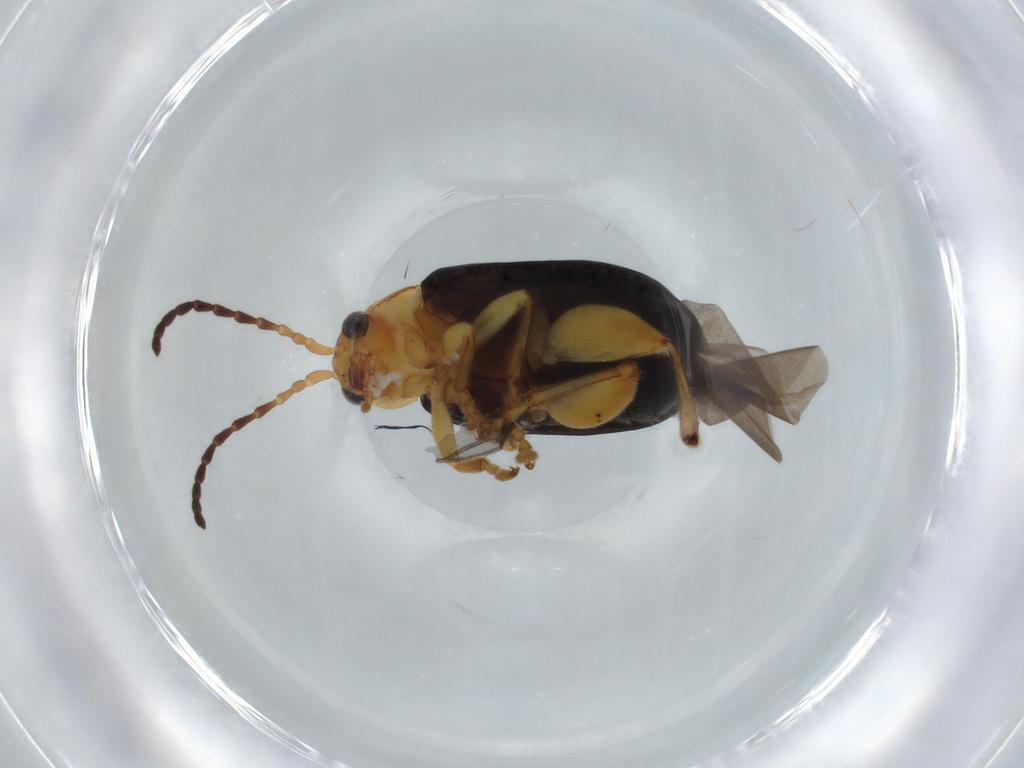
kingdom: Animalia
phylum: Arthropoda
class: Insecta
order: Coleoptera
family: Chrysomelidae
